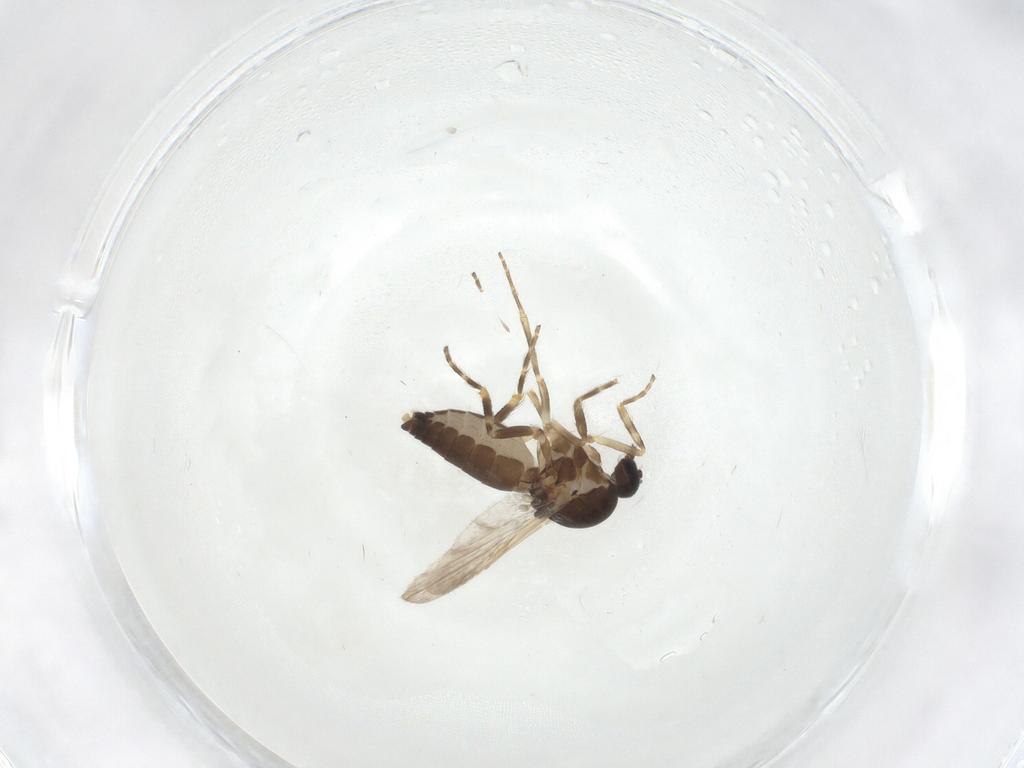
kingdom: Animalia
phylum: Arthropoda
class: Insecta
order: Diptera
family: Ceratopogonidae
